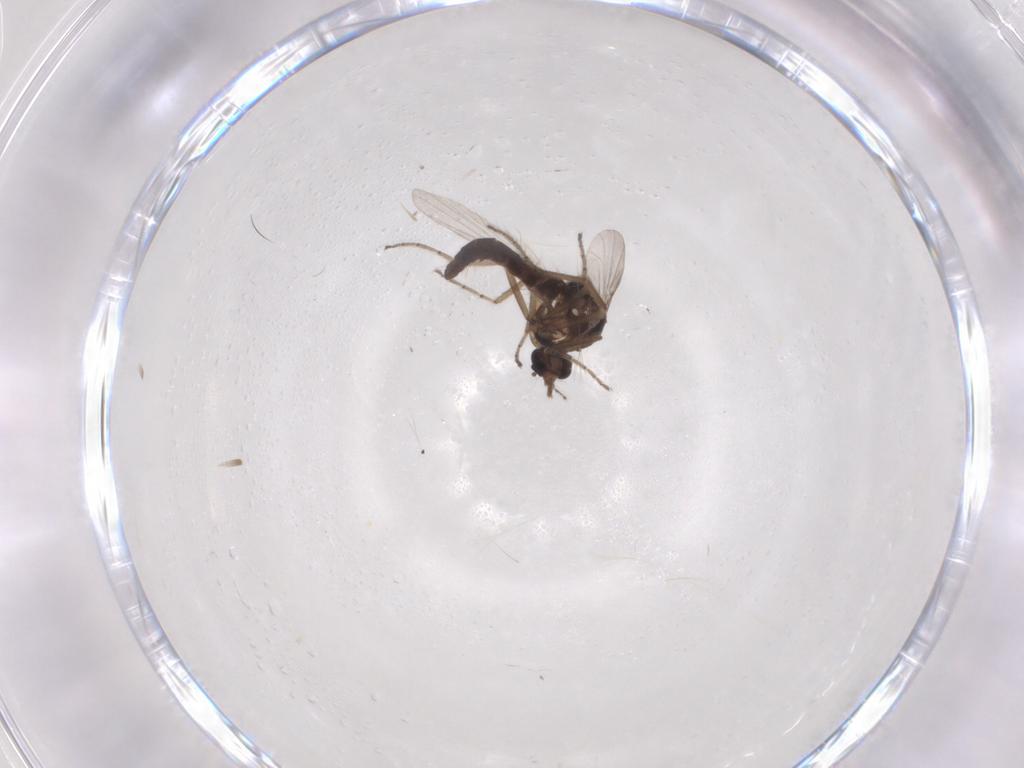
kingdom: Animalia
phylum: Arthropoda
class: Insecta
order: Diptera
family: Ceratopogonidae
